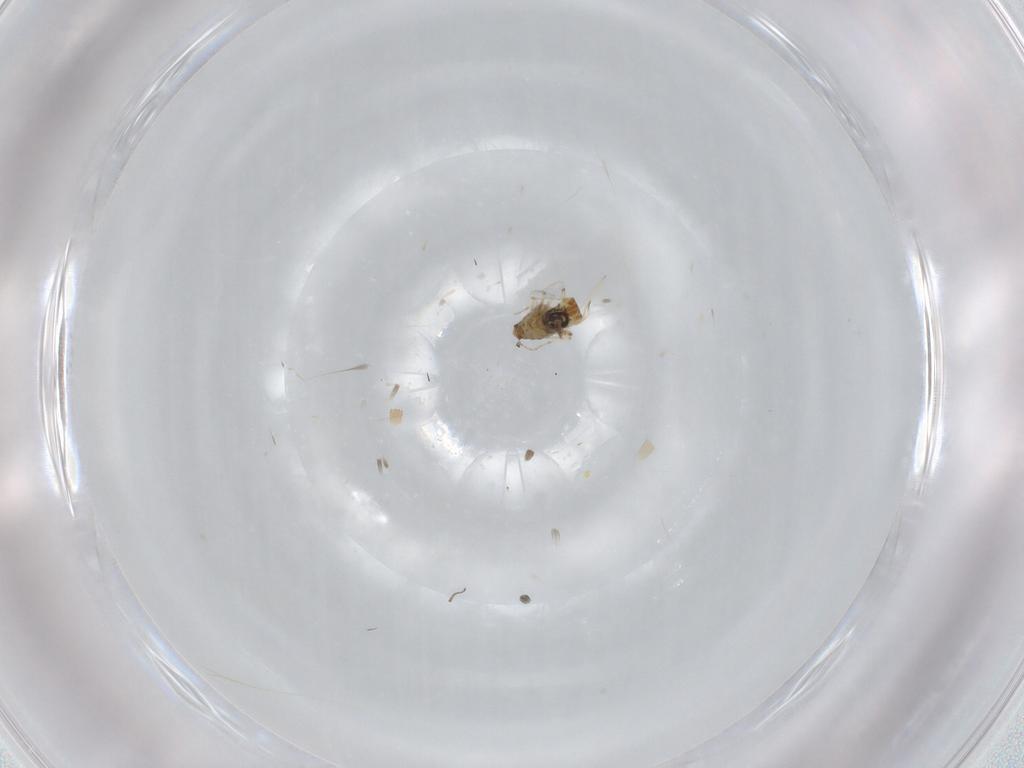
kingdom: Animalia
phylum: Arthropoda
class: Insecta
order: Diptera
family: Ceratopogonidae
